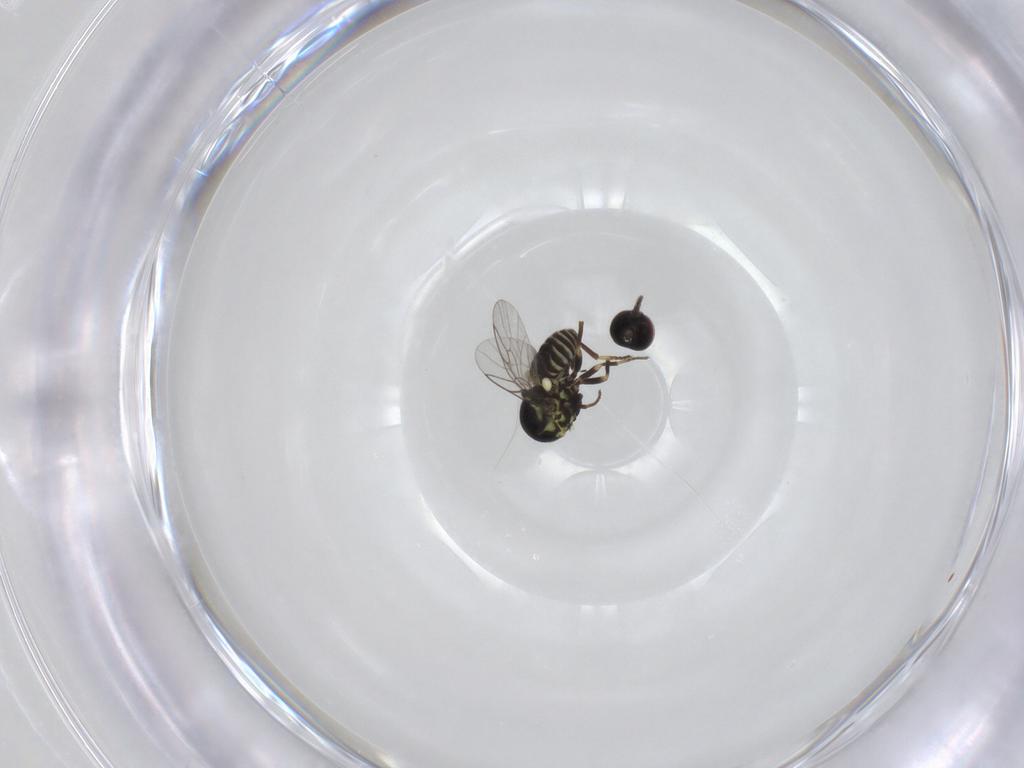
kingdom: Animalia
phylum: Arthropoda
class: Insecta
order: Diptera
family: Mythicomyiidae
